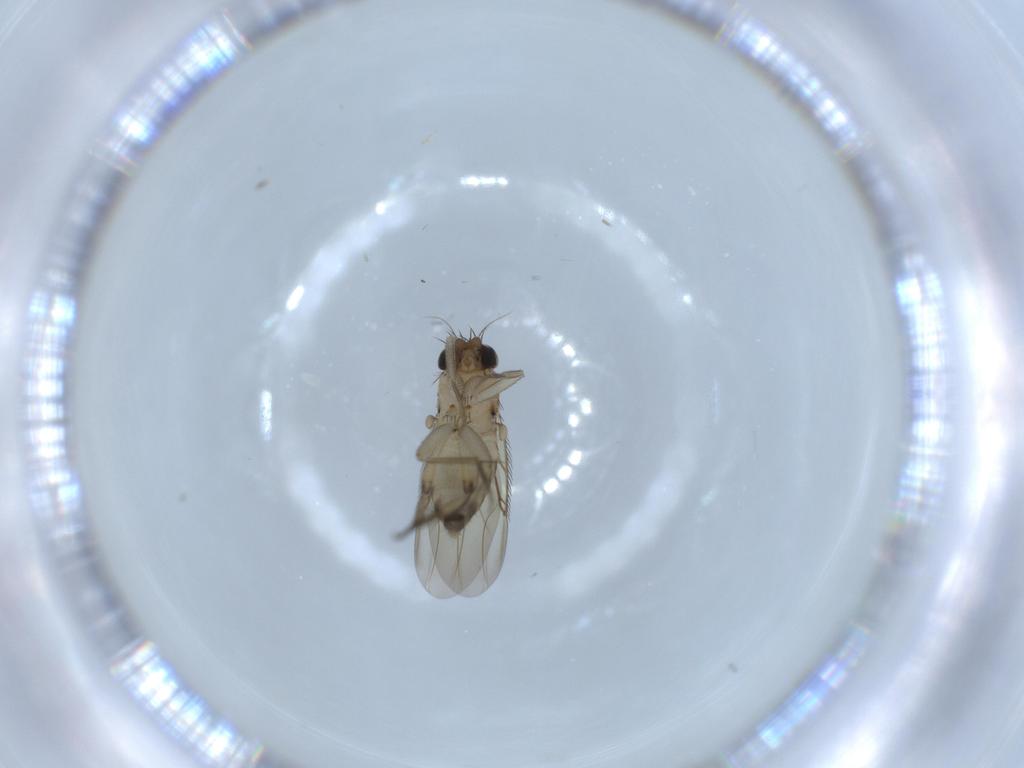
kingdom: Animalia
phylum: Arthropoda
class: Insecta
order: Diptera
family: Phoridae
